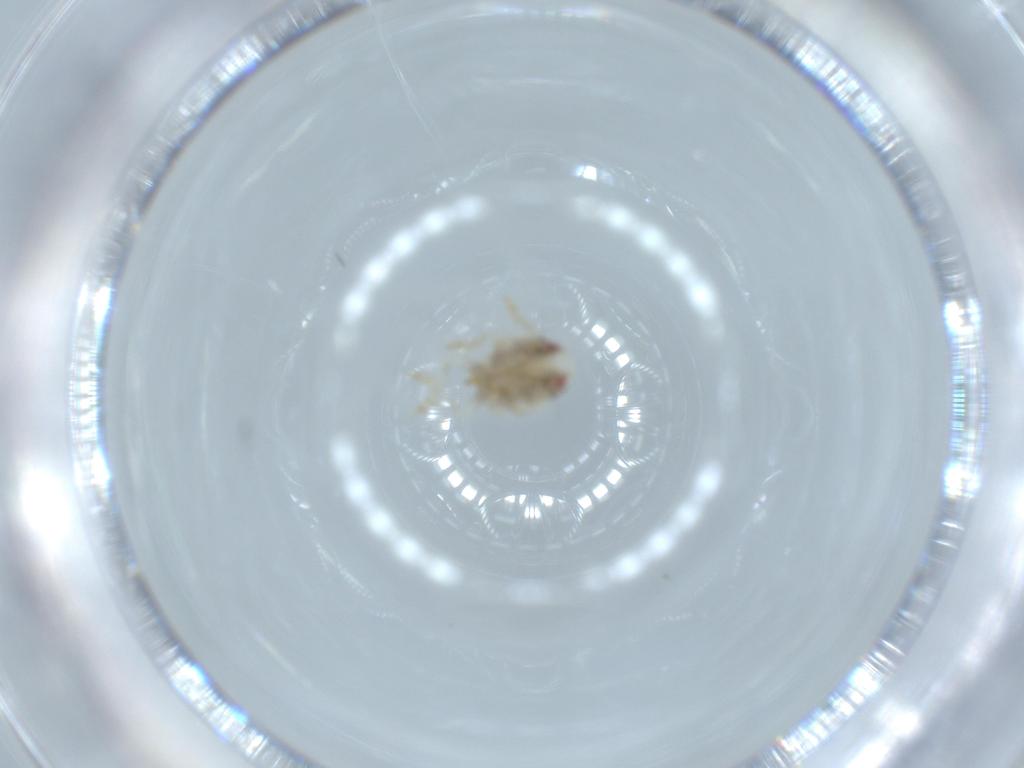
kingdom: Animalia
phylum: Arthropoda
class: Insecta
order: Hemiptera
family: Acanaloniidae
